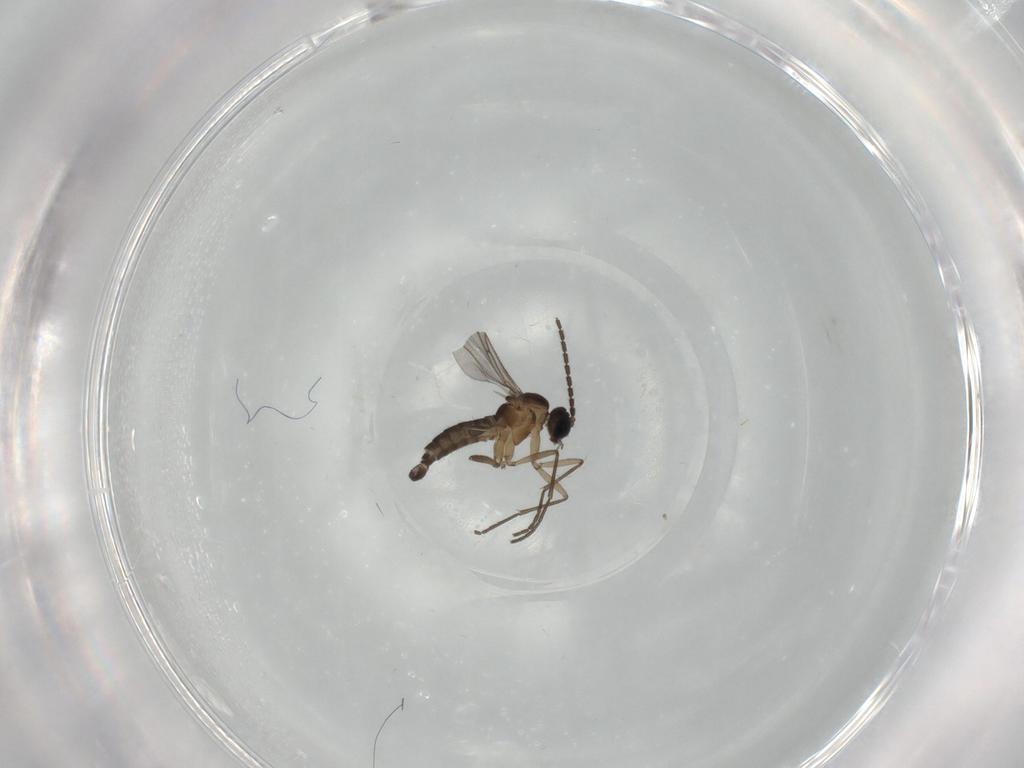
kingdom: Animalia
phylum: Arthropoda
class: Insecta
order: Diptera
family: Sciaridae
